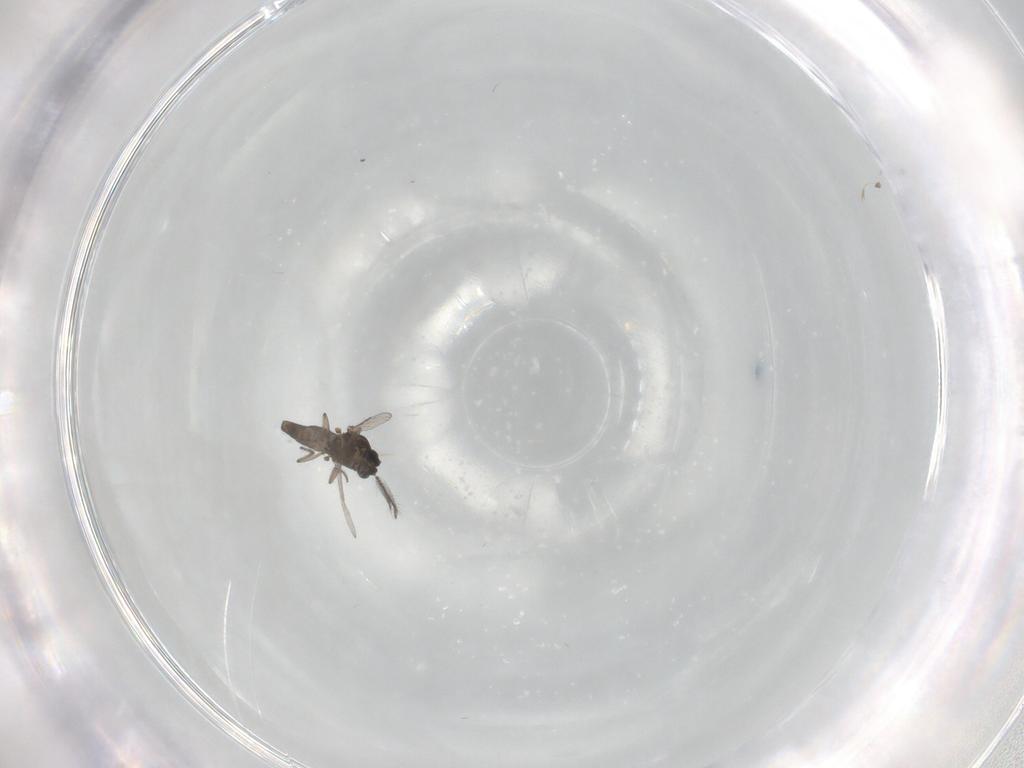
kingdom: Animalia
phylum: Arthropoda
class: Insecta
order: Diptera
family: Ceratopogonidae
